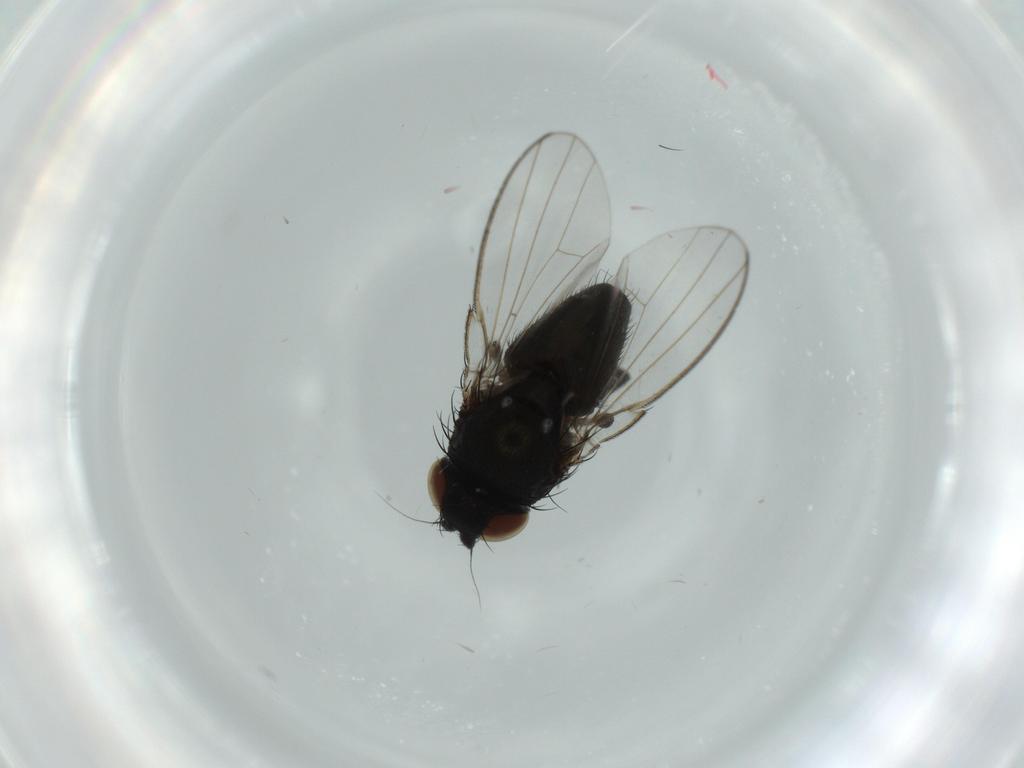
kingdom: Animalia
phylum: Arthropoda
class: Insecta
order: Diptera
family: Milichiidae
